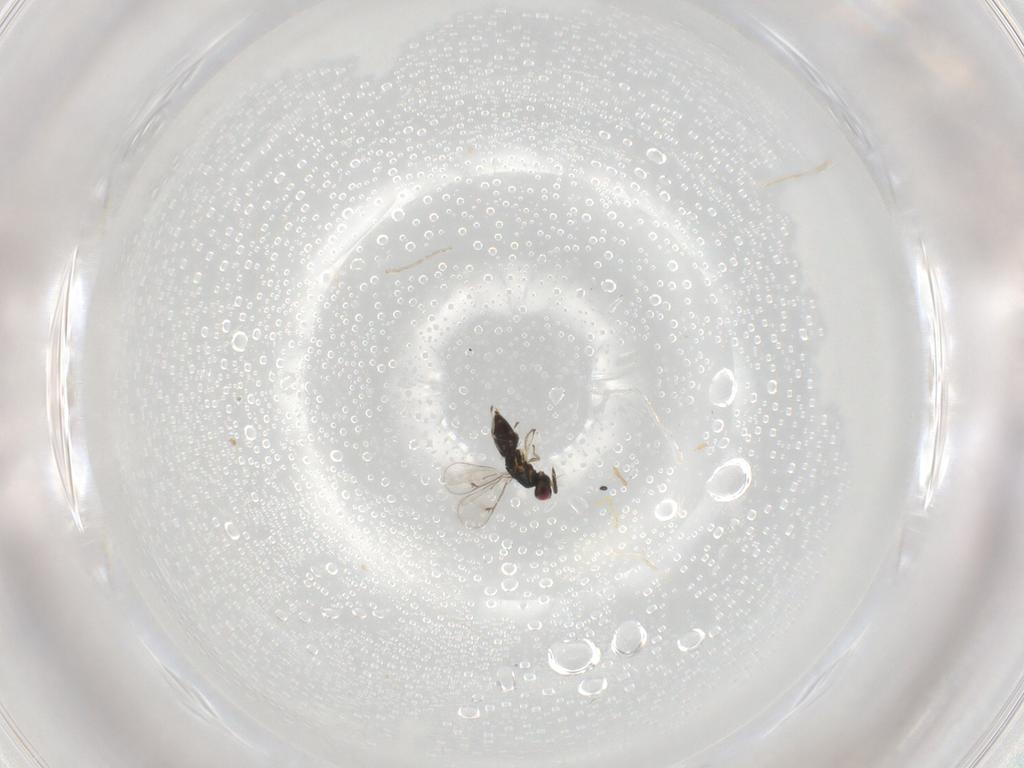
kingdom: Animalia
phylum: Arthropoda
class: Insecta
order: Hymenoptera
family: Eulophidae
